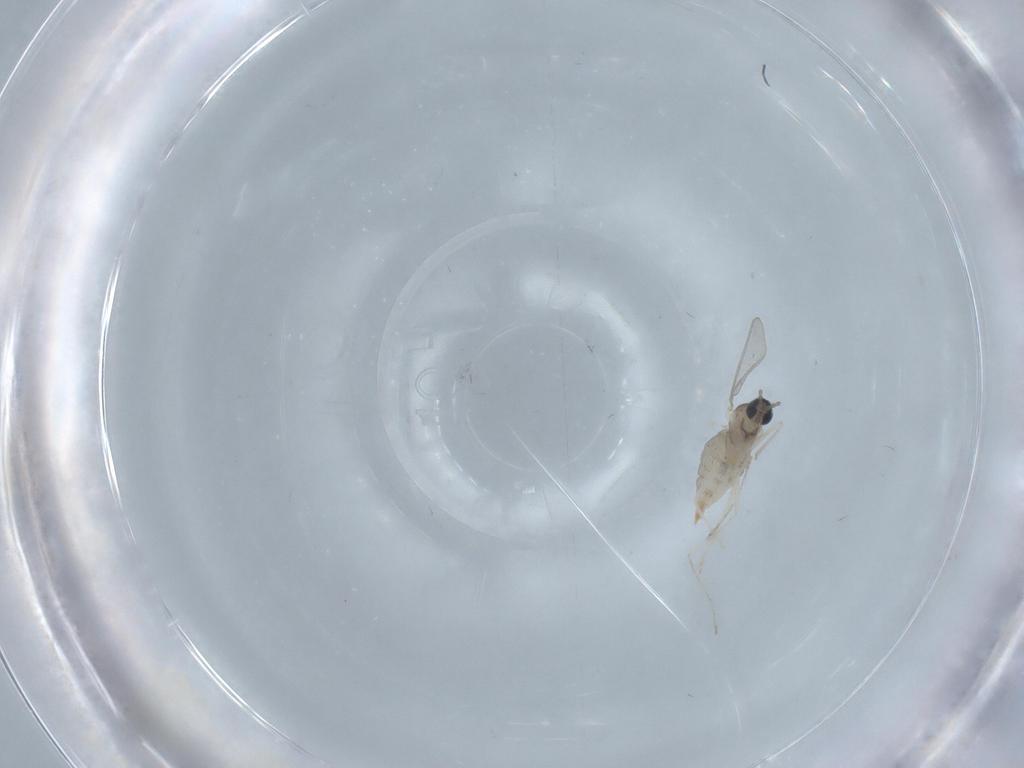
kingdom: Animalia
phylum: Arthropoda
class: Insecta
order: Diptera
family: Cecidomyiidae
